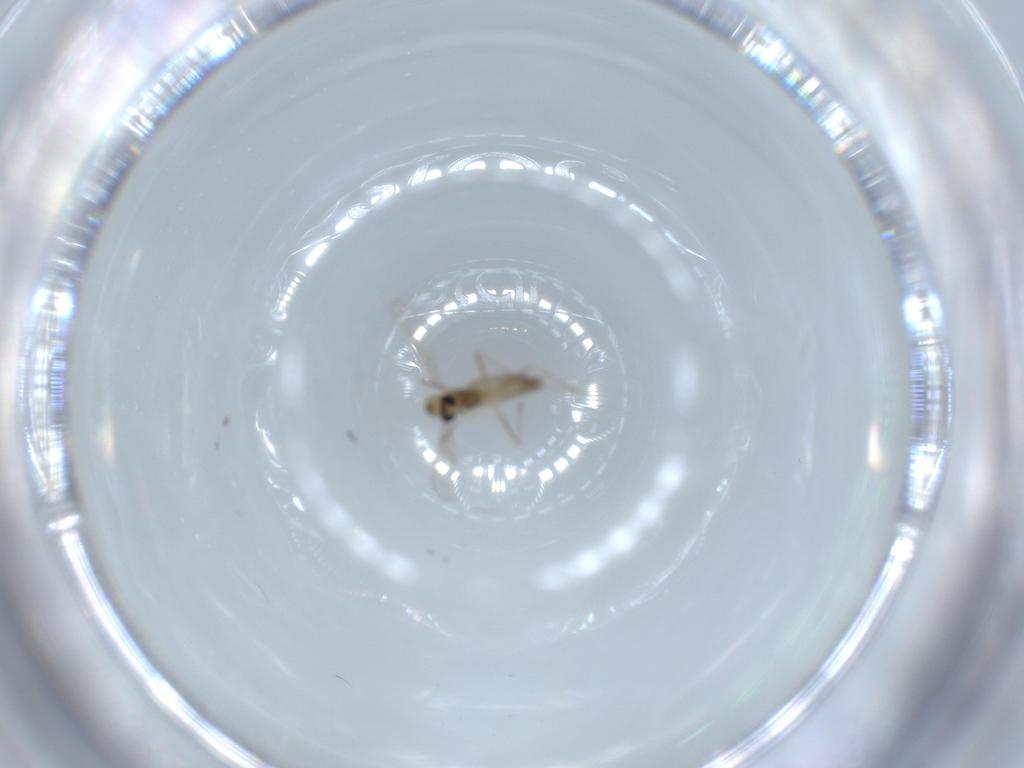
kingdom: Animalia
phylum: Arthropoda
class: Insecta
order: Diptera
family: Chironomidae
